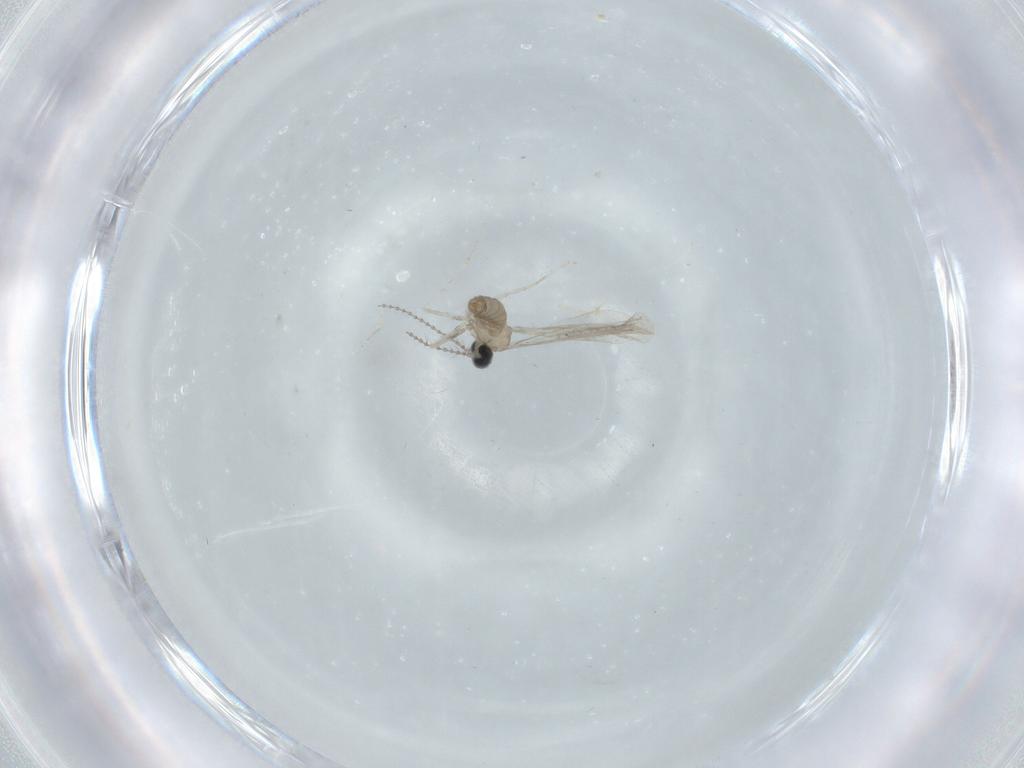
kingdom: Animalia
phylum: Arthropoda
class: Insecta
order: Diptera
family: Cecidomyiidae
